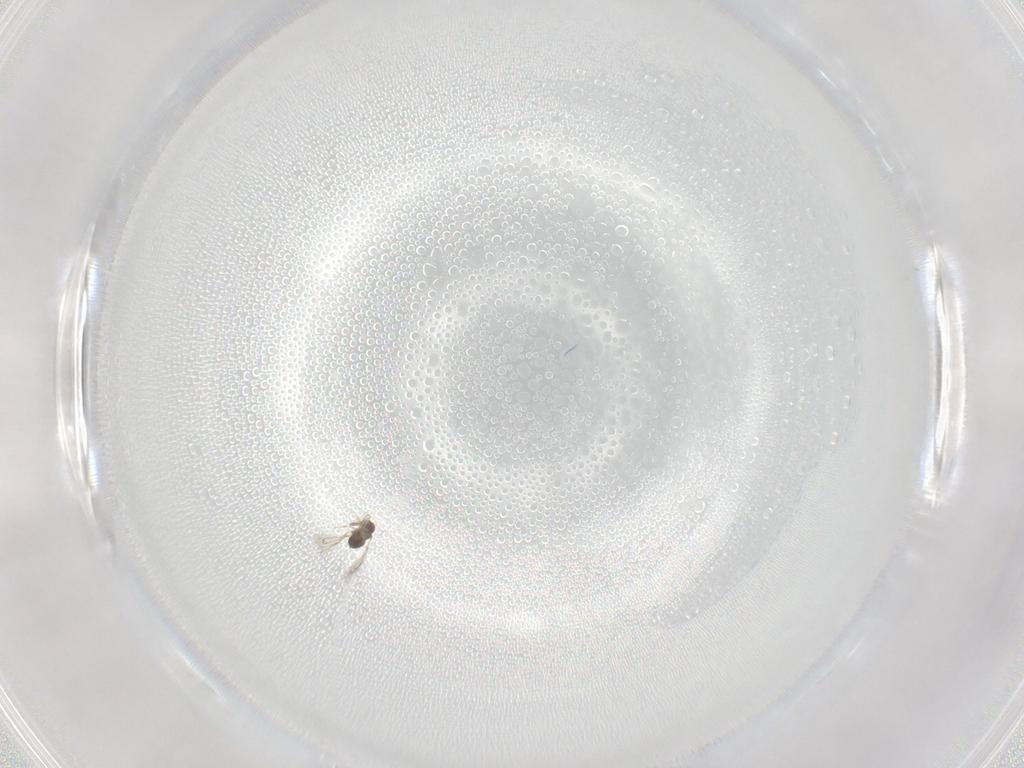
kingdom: Animalia
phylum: Arthropoda
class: Insecta
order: Hymenoptera
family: Mymaridae
